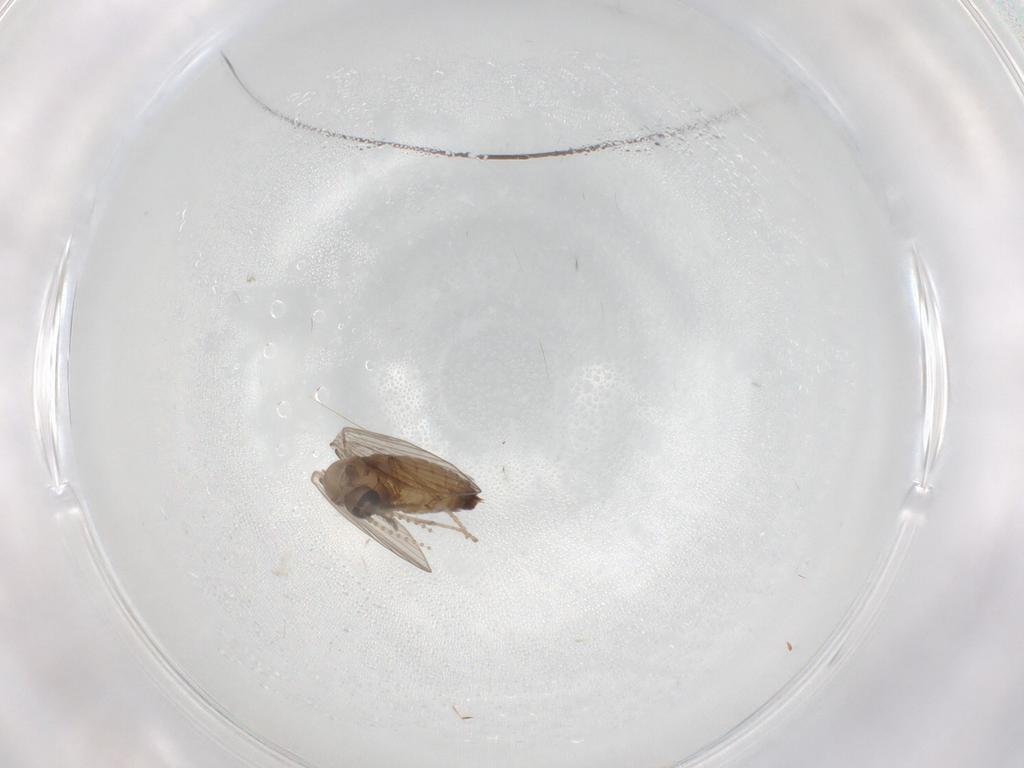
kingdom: Animalia
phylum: Arthropoda
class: Insecta
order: Diptera
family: Psychodidae
